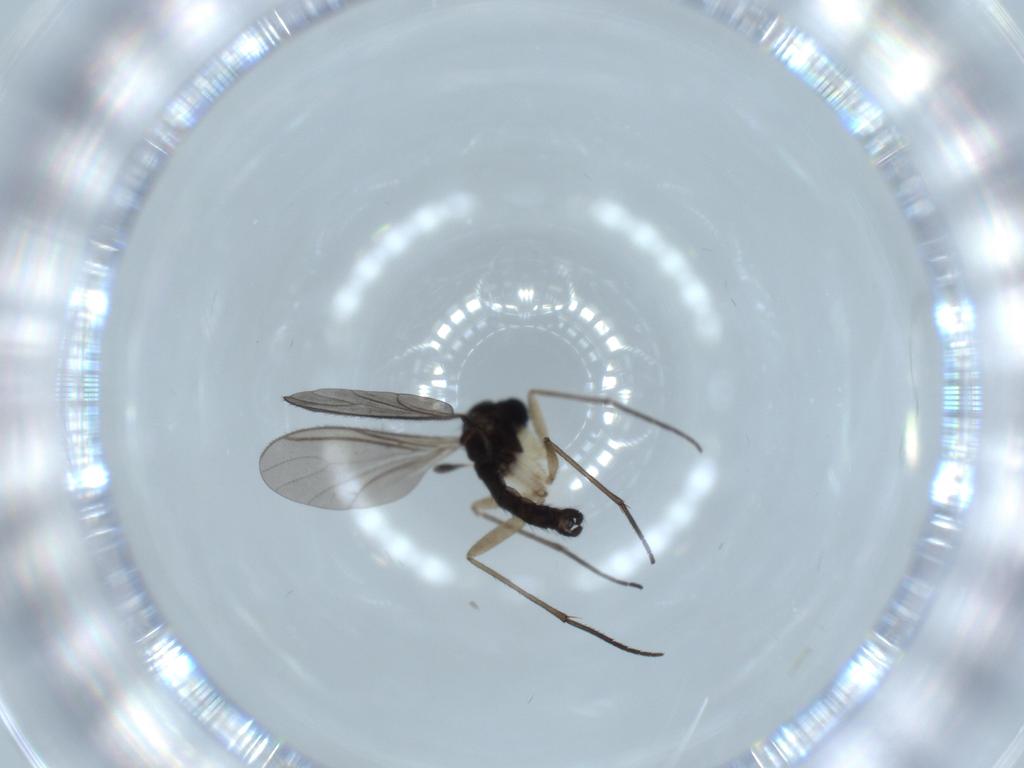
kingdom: Animalia
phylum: Arthropoda
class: Insecta
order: Diptera
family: Sciaridae
